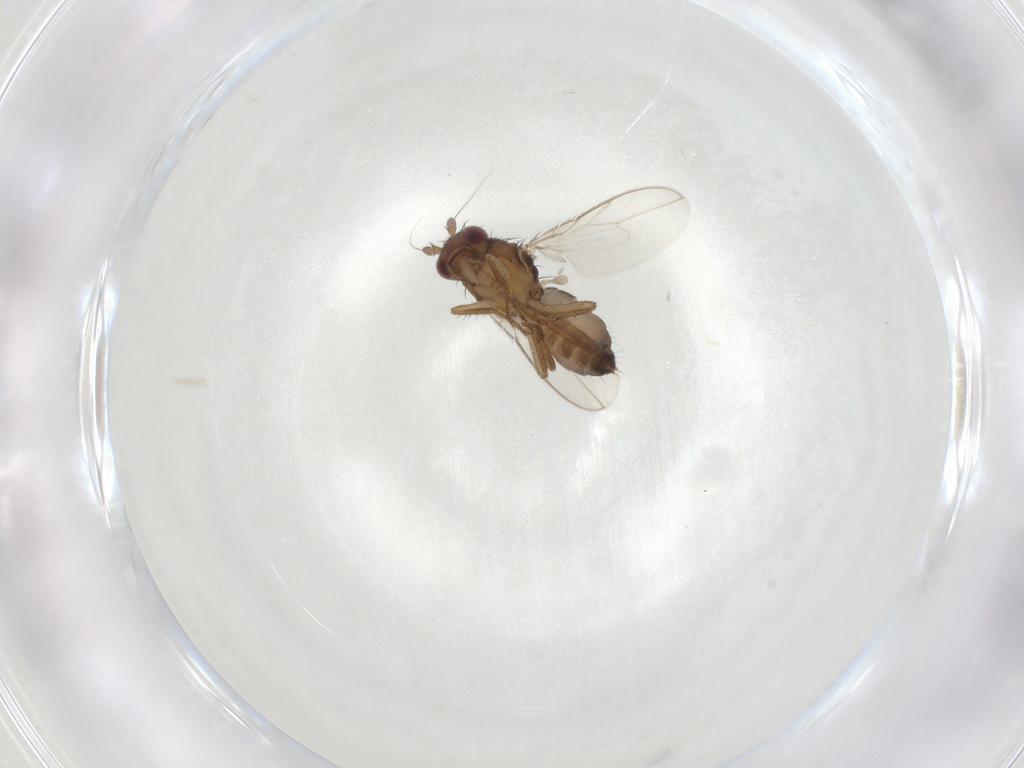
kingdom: Animalia
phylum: Arthropoda
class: Insecta
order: Diptera
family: Sphaeroceridae
